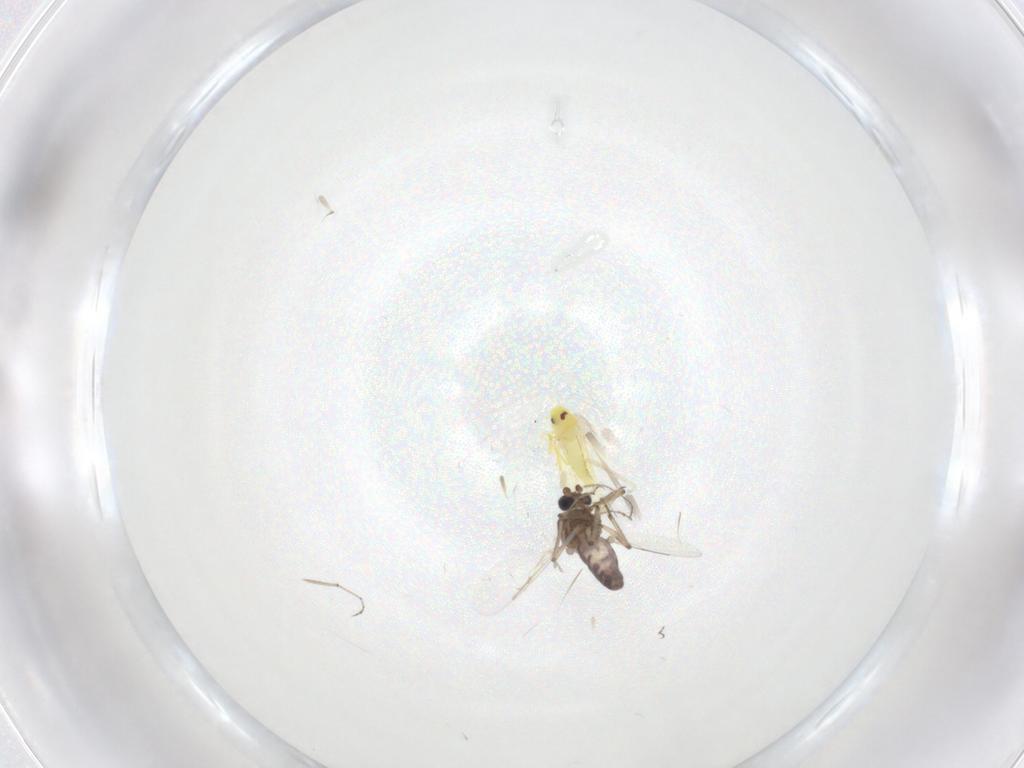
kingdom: Animalia
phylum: Arthropoda
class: Insecta
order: Hemiptera
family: Aleyrodidae
